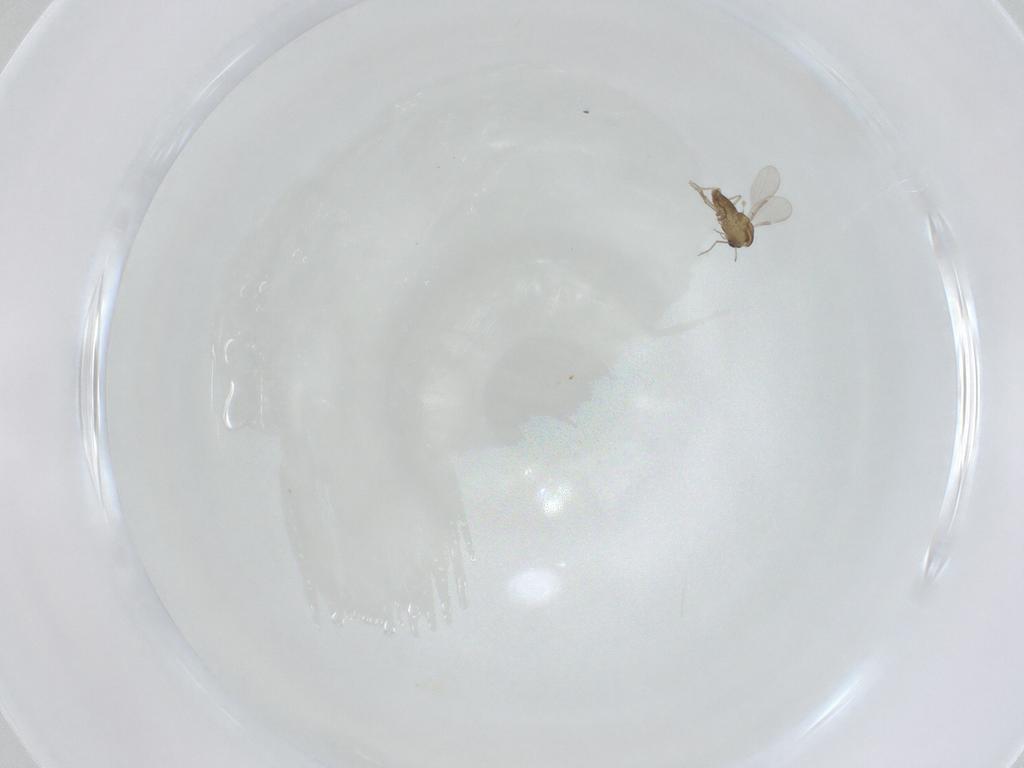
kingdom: Animalia
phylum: Arthropoda
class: Insecta
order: Diptera
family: Chironomidae
